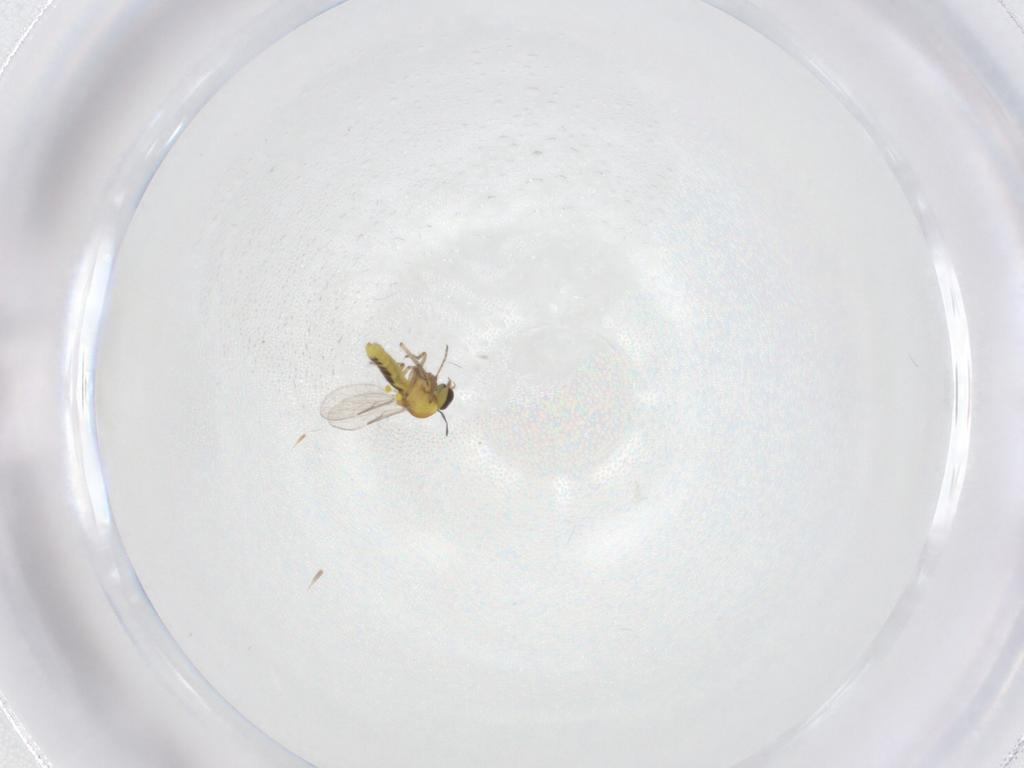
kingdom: Animalia
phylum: Arthropoda
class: Insecta
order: Diptera
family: Ceratopogonidae
